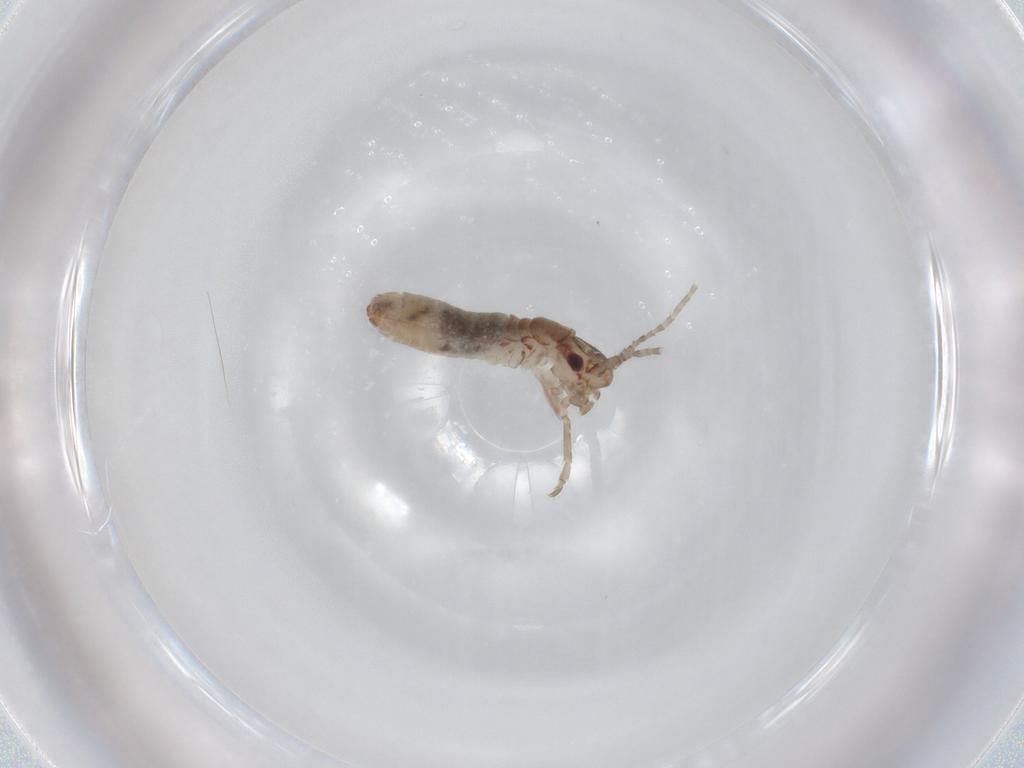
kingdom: Animalia
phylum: Arthropoda
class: Insecta
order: Orthoptera
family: Mogoplistidae
